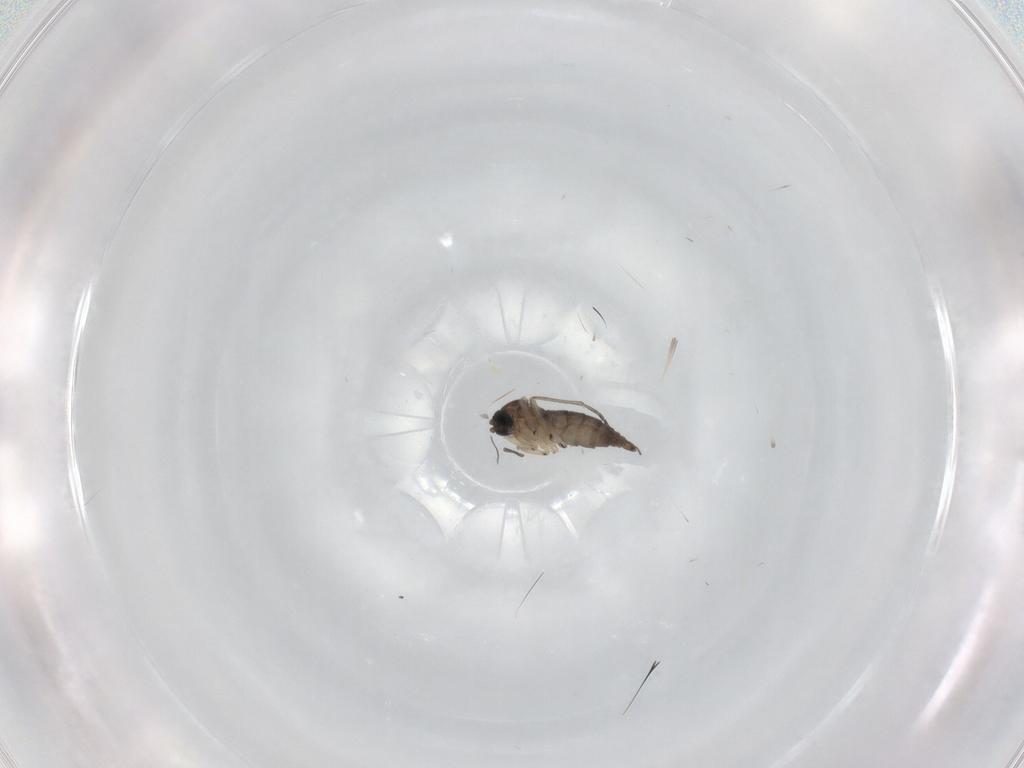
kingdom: Animalia
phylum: Arthropoda
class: Insecta
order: Diptera
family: Sciaridae
